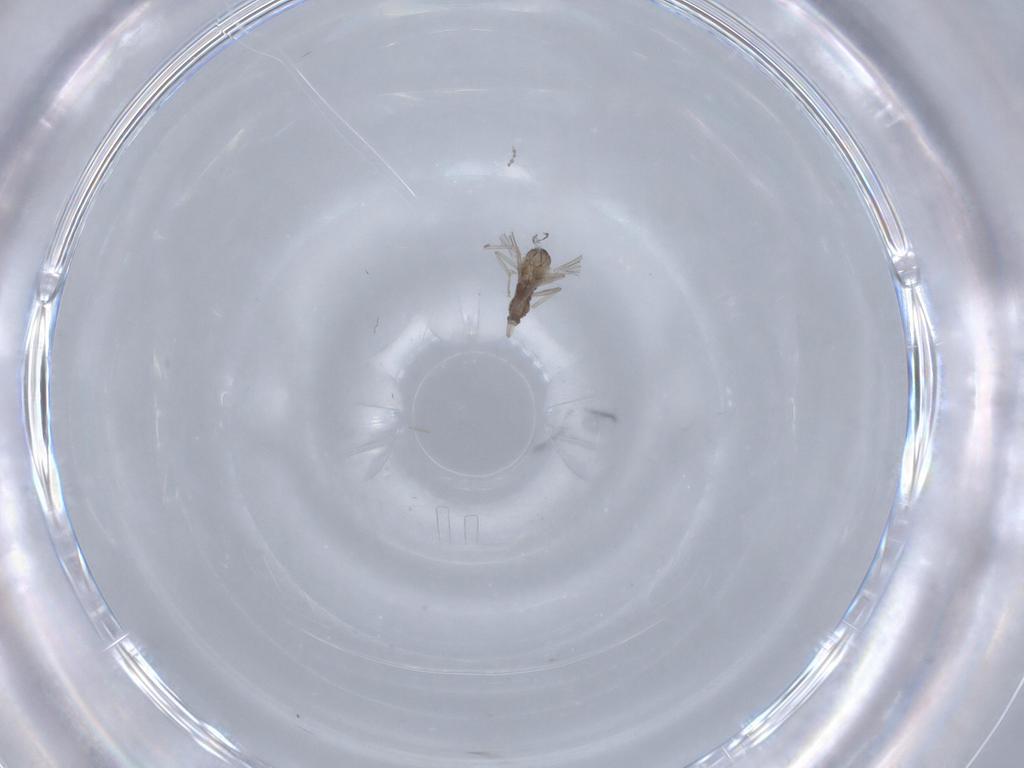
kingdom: Animalia
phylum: Arthropoda
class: Insecta
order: Diptera
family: Cecidomyiidae
